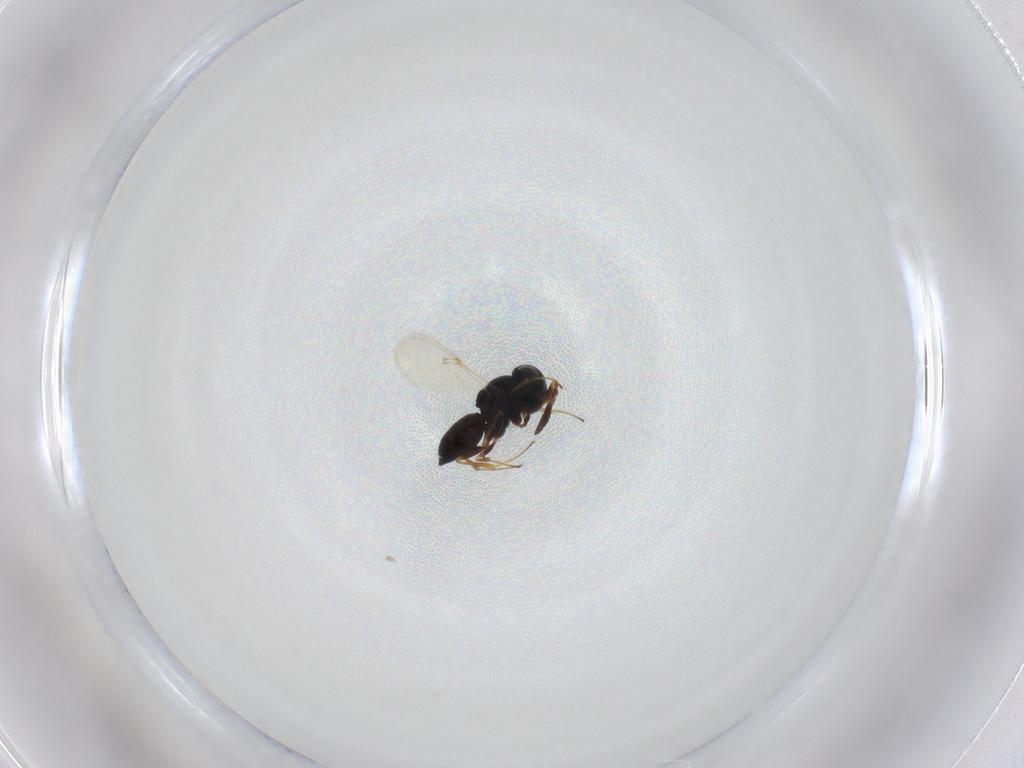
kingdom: Animalia
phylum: Arthropoda
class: Insecta
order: Hymenoptera
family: Scelionidae
